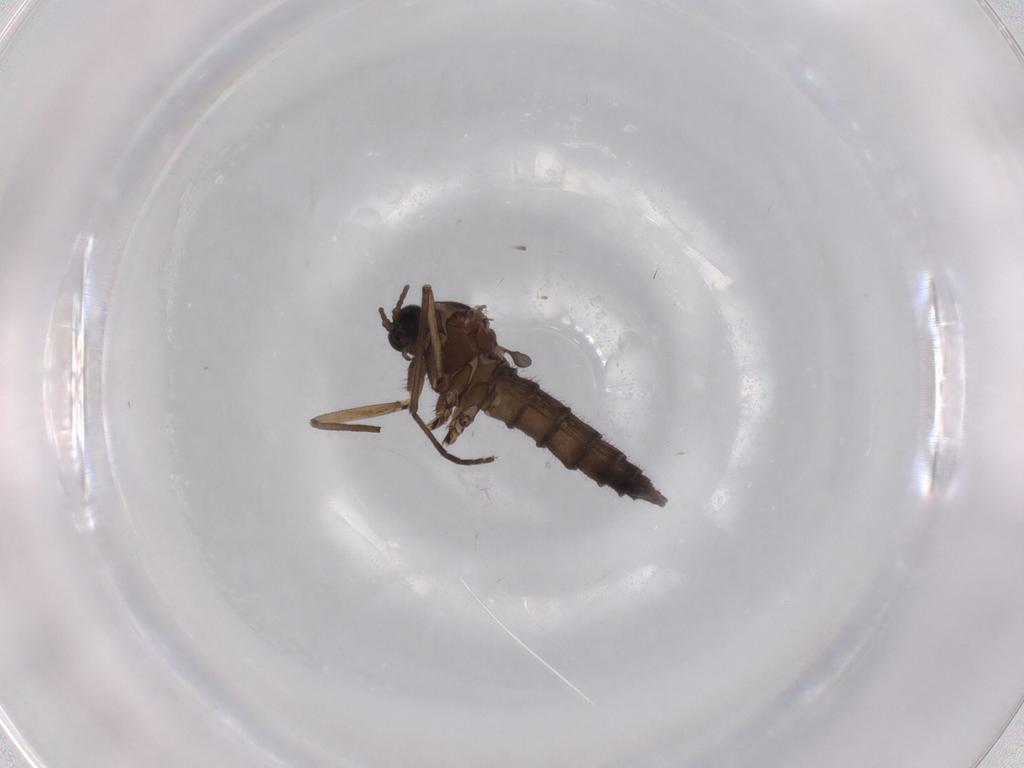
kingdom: Animalia
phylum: Arthropoda
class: Insecta
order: Diptera
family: Sciaridae
